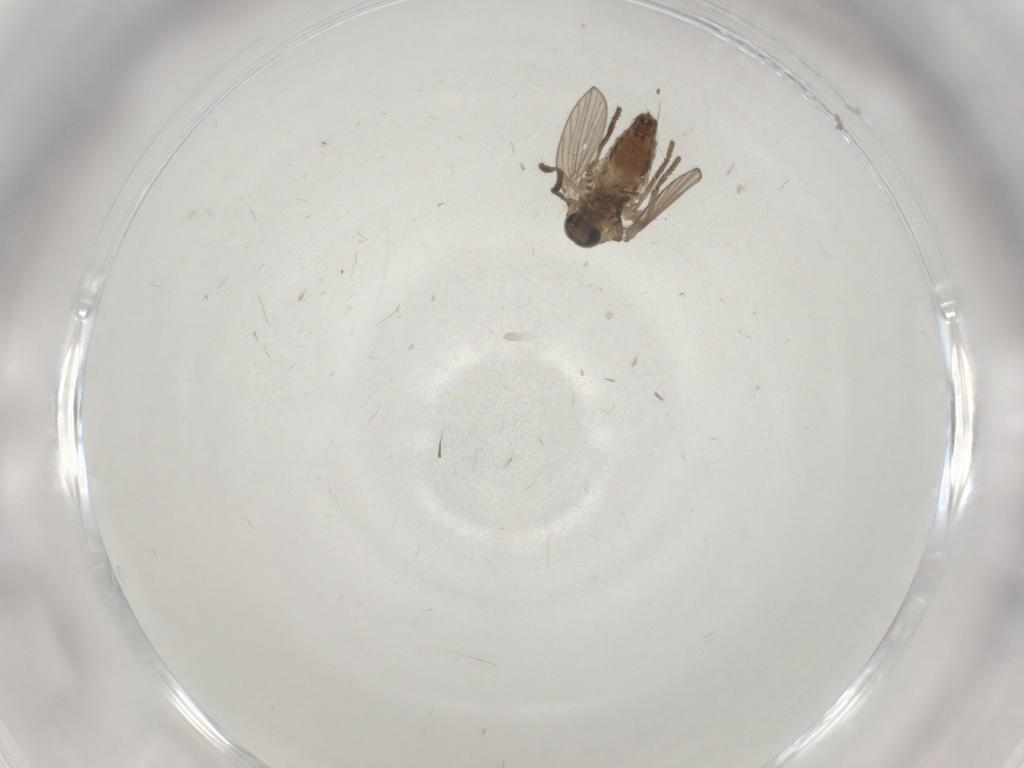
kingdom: Animalia
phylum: Arthropoda
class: Insecta
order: Diptera
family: Psychodidae
